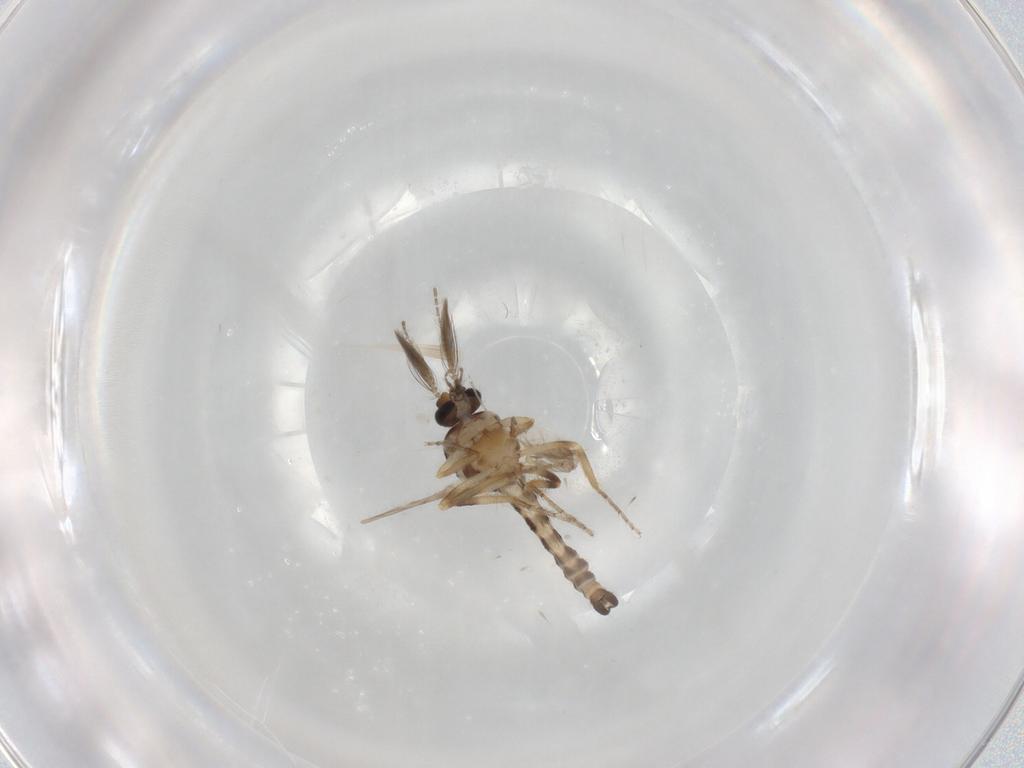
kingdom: Animalia
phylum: Arthropoda
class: Insecta
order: Diptera
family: Ceratopogonidae
